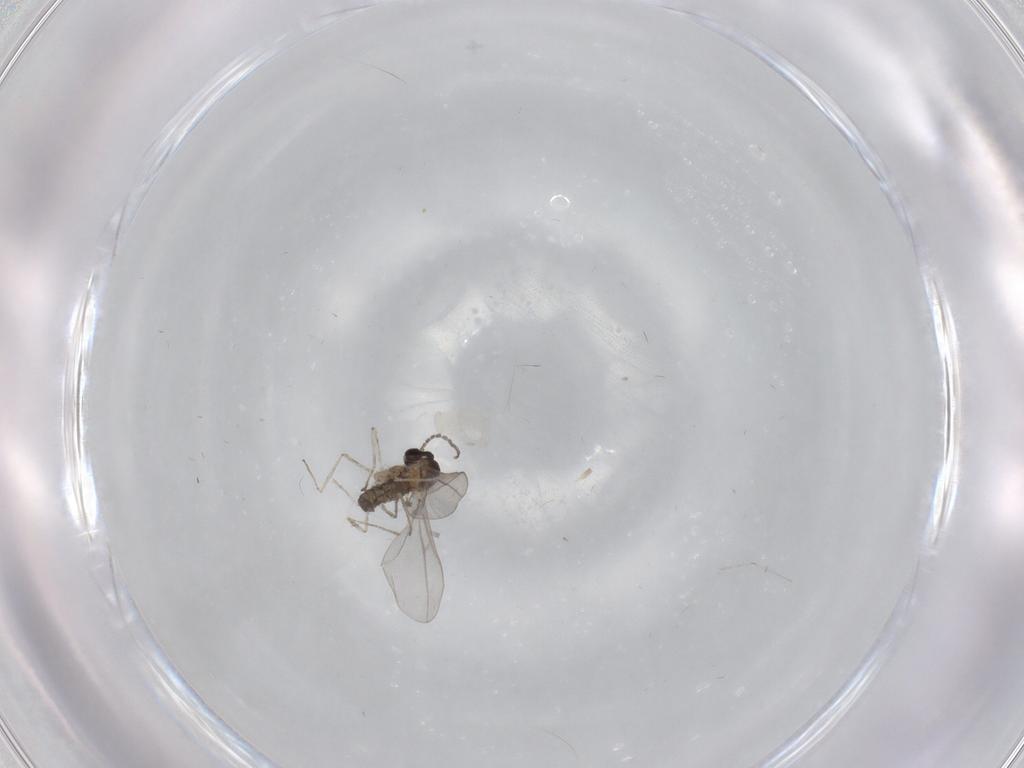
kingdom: Animalia
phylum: Arthropoda
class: Insecta
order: Diptera
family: Cecidomyiidae
